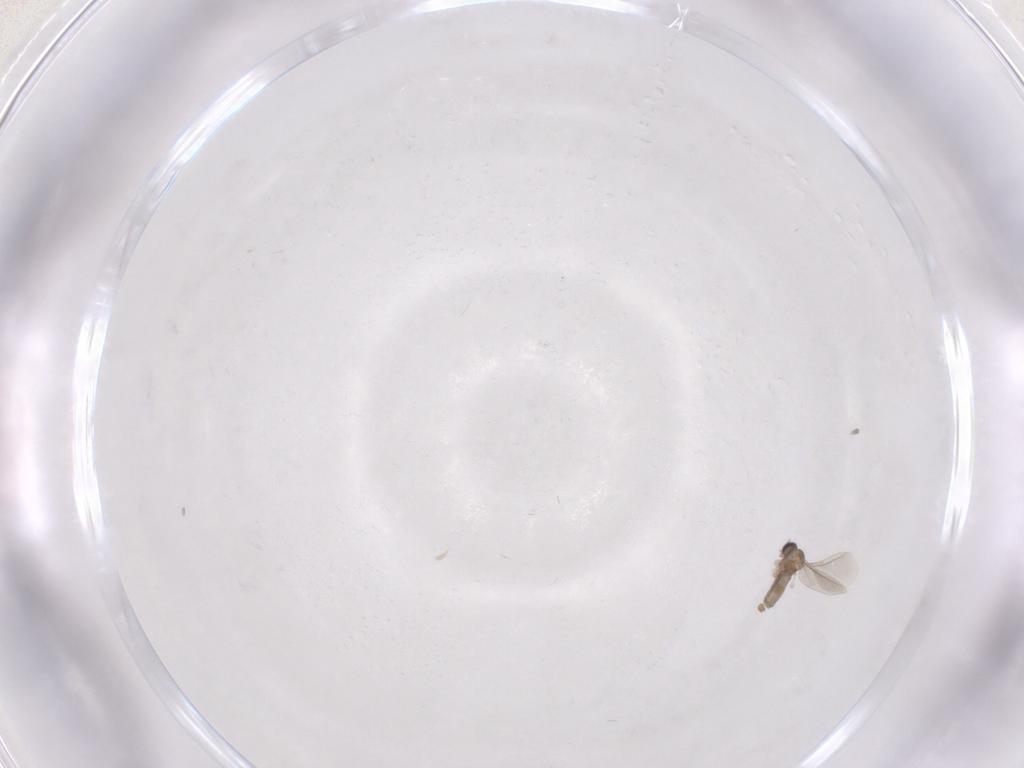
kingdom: Animalia
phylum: Arthropoda
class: Insecta
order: Diptera
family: Cecidomyiidae
